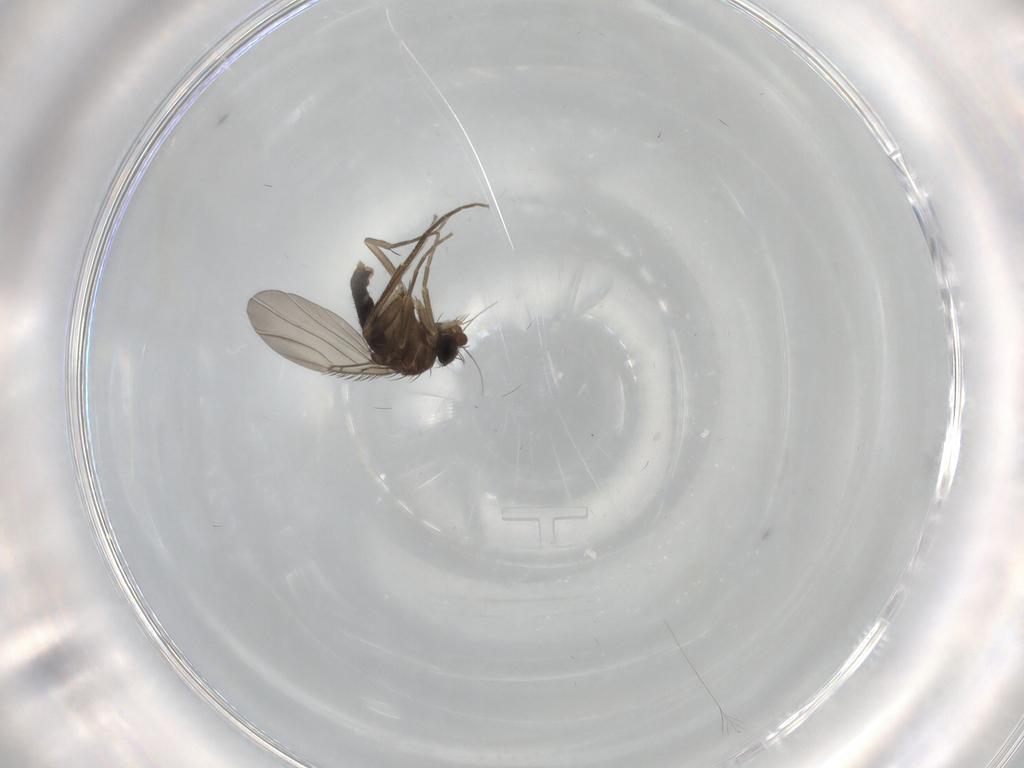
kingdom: Animalia
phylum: Arthropoda
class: Insecta
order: Diptera
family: Phoridae
